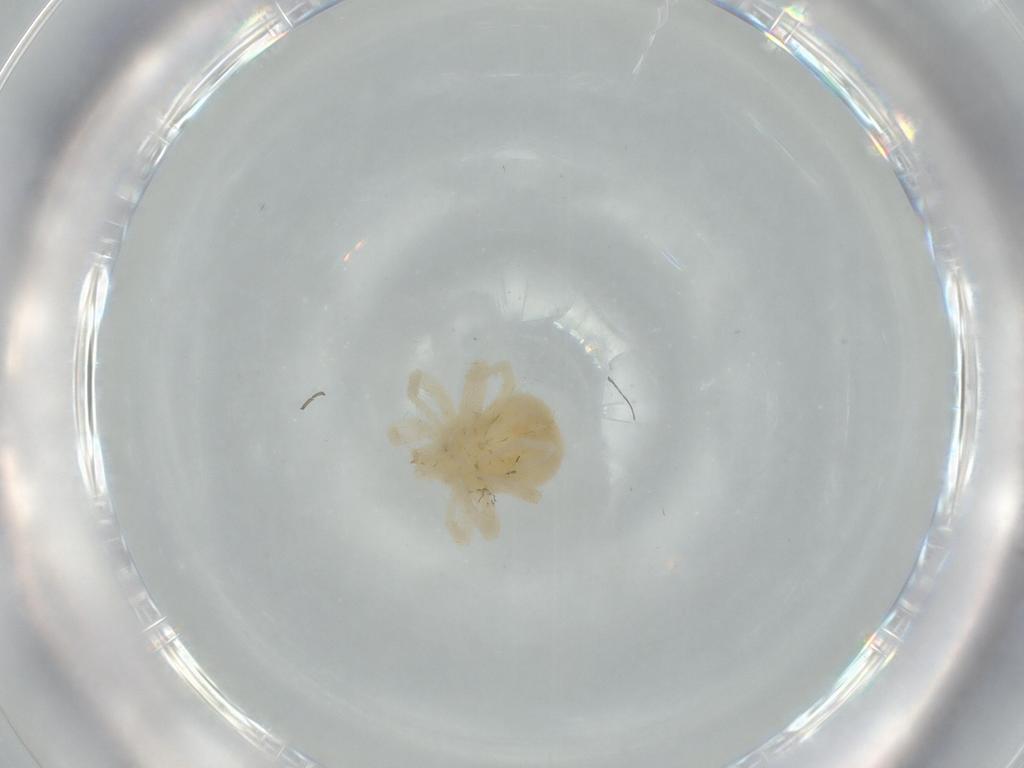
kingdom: Animalia
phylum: Arthropoda
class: Arachnida
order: Trombidiformes
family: Anystidae
